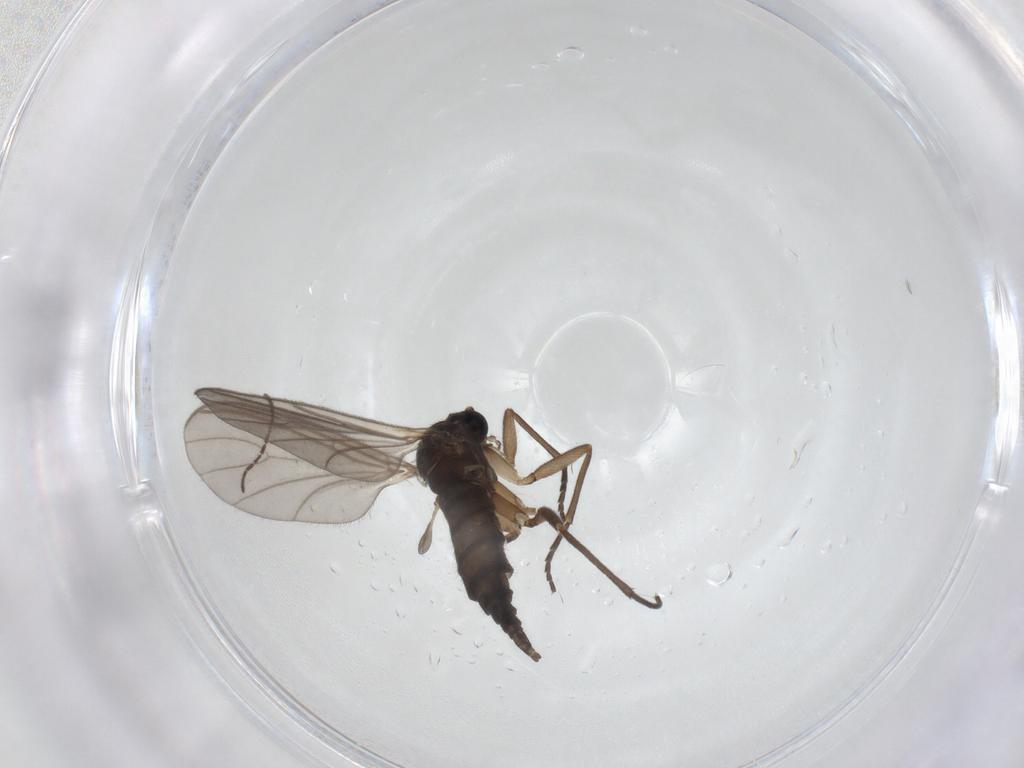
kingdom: Animalia
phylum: Arthropoda
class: Insecta
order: Diptera
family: Sciaridae
